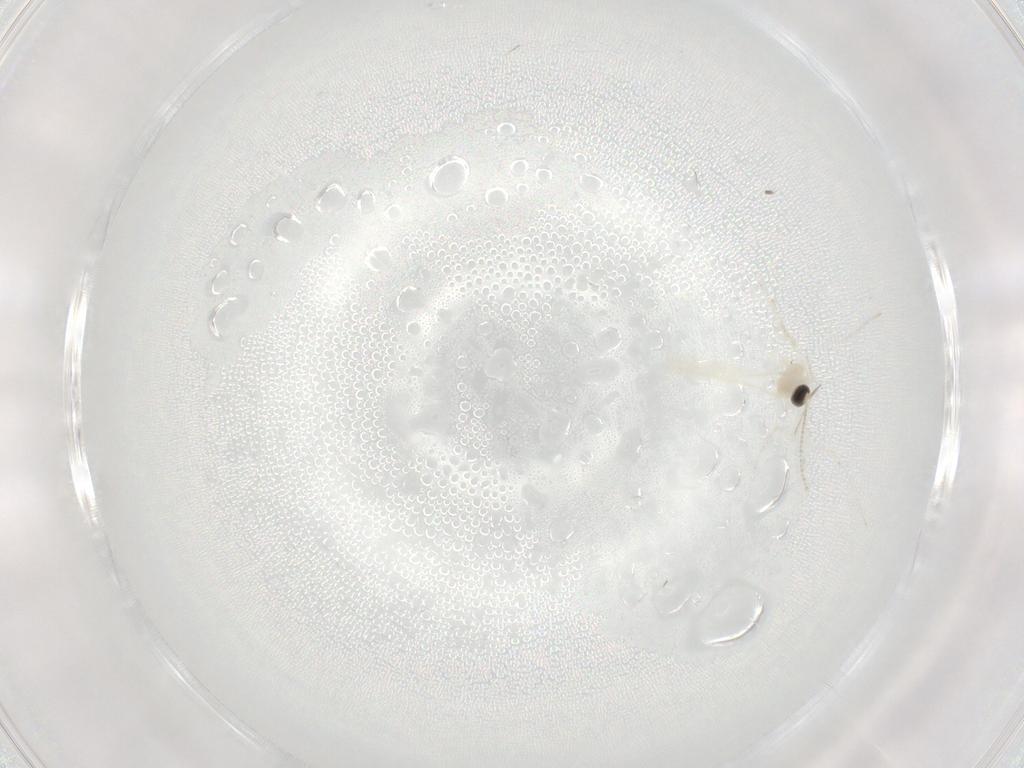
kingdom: Animalia
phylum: Arthropoda
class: Insecta
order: Diptera
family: Cecidomyiidae
